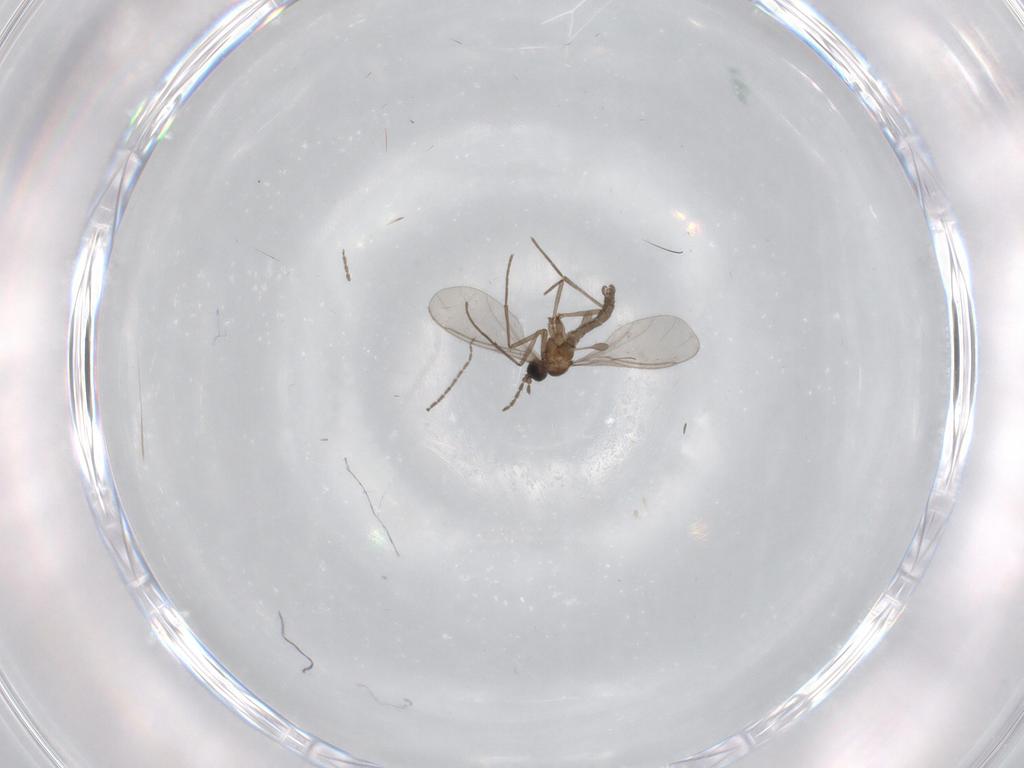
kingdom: Animalia
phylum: Arthropoda
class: Insecta
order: Diptera
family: Sciaridae
